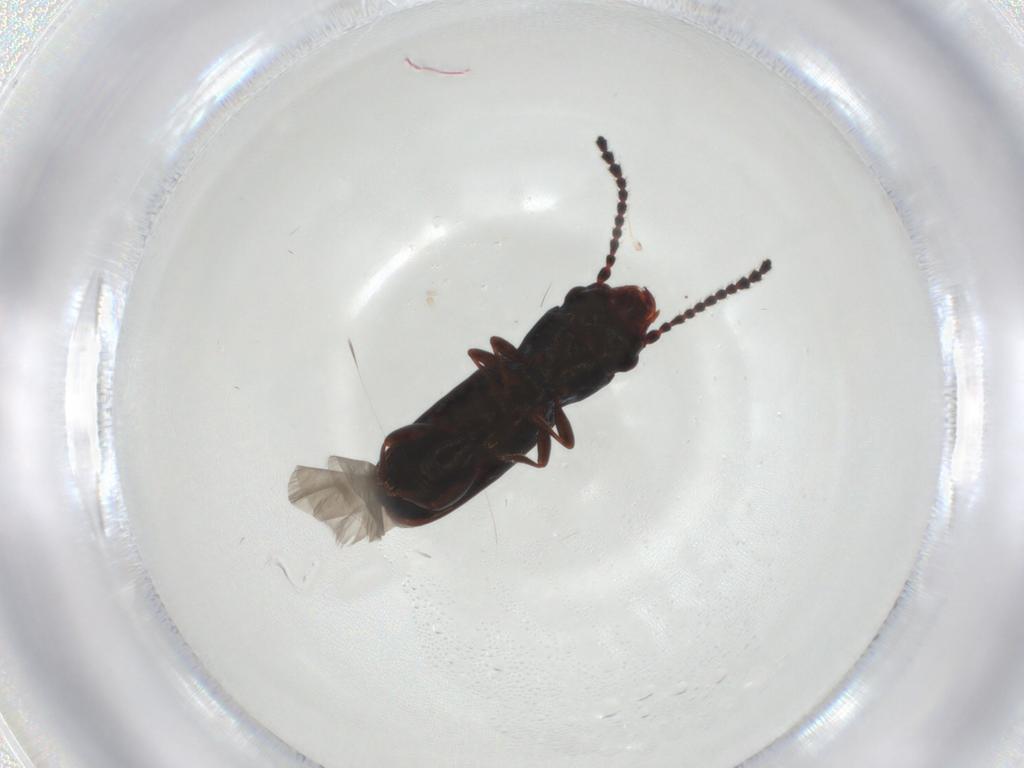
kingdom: Animalia
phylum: Arthropoda
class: Insecta
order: Coleoptera
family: Laemophloeidae
